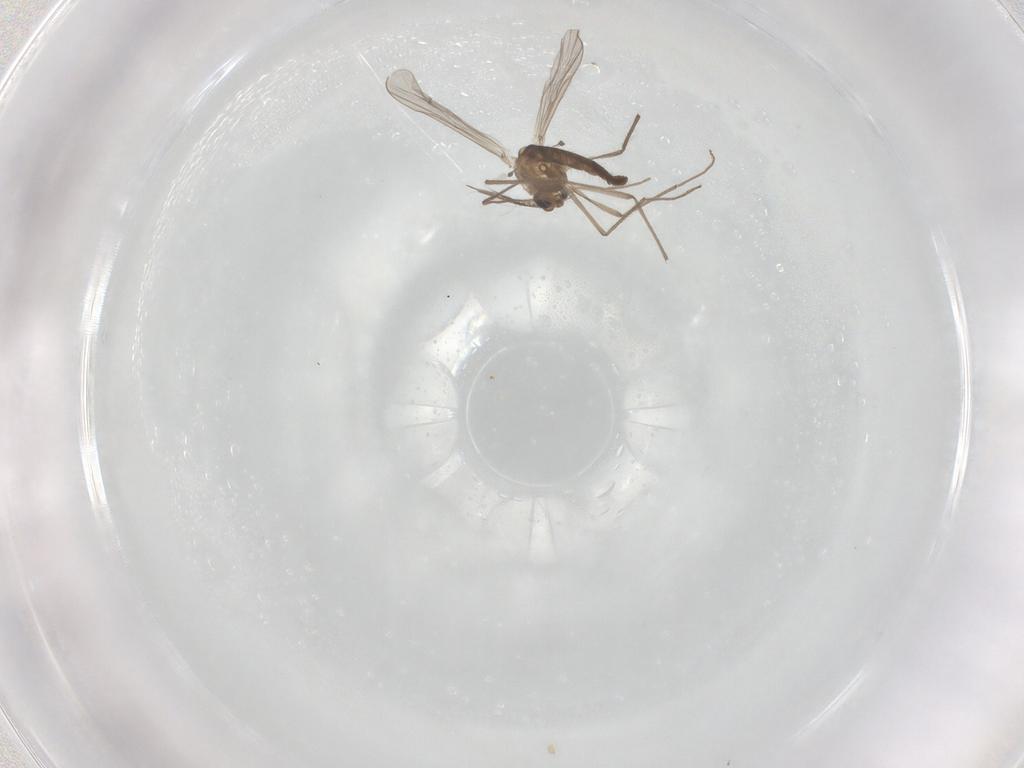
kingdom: Animalia
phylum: Arthropoda
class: Insecta
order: Diptera
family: Chironomidae
